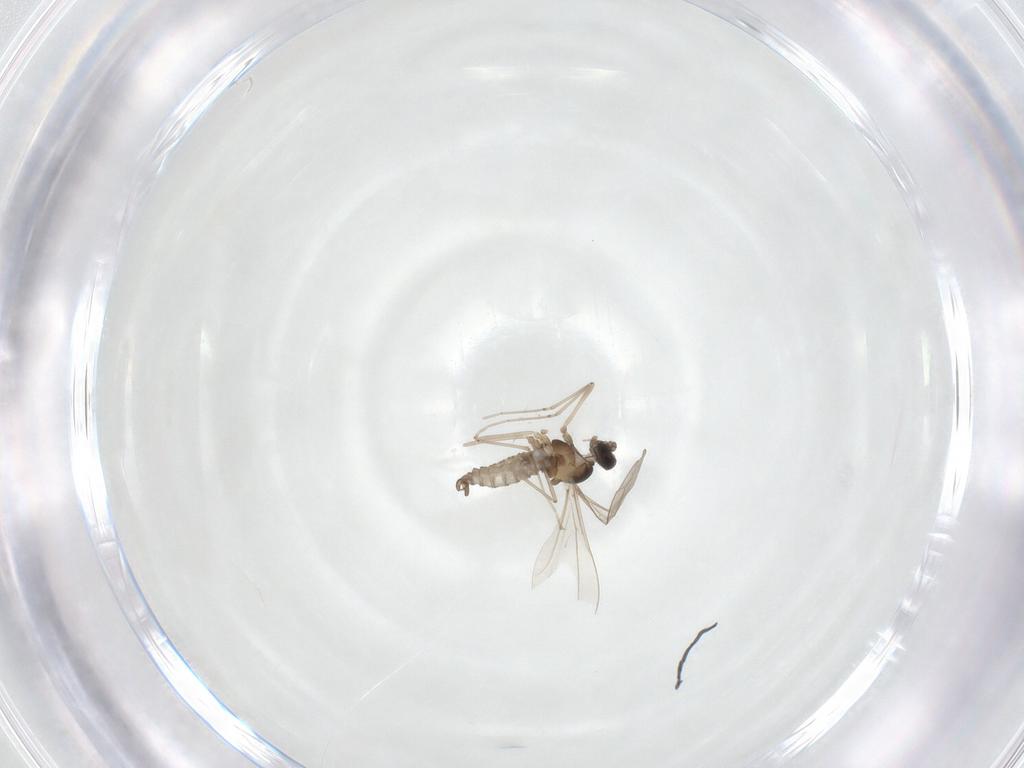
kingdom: Animalia
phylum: Arthropoda
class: Insecta
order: Diptera
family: Cecidomyiidae
